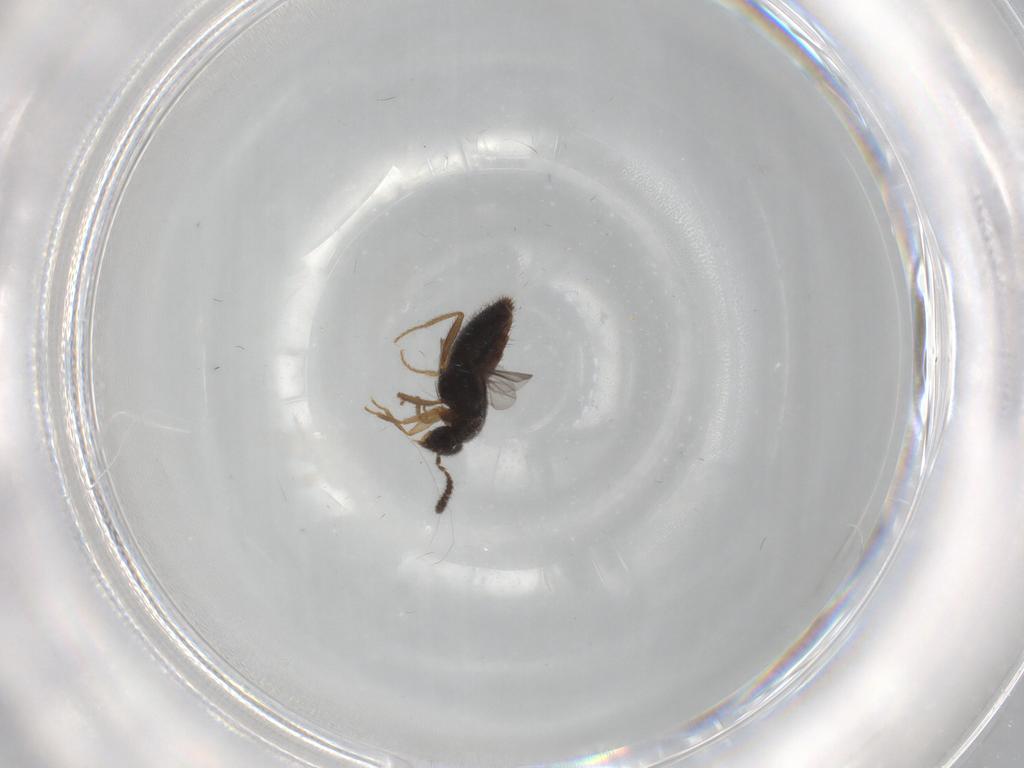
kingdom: Animalia
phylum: Arthropoda
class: Insecta
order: Coleoptera
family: Staphylinidae
